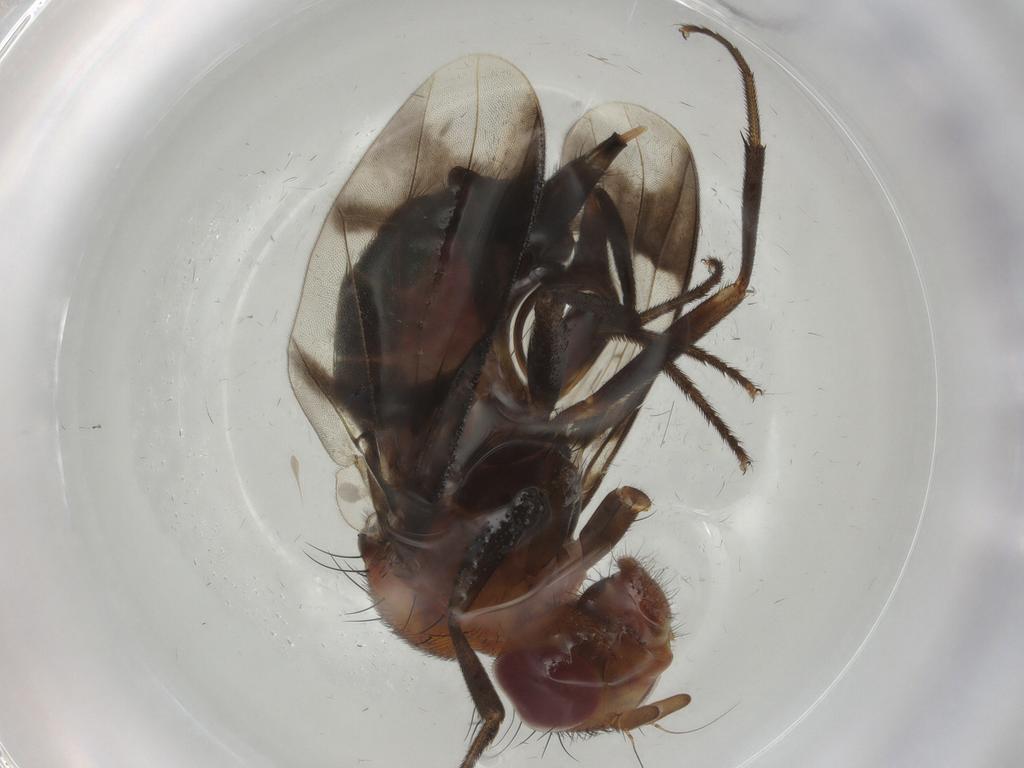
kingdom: Animalia
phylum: Arthropoda
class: Insecta
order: Diptera
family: Richardiidae
